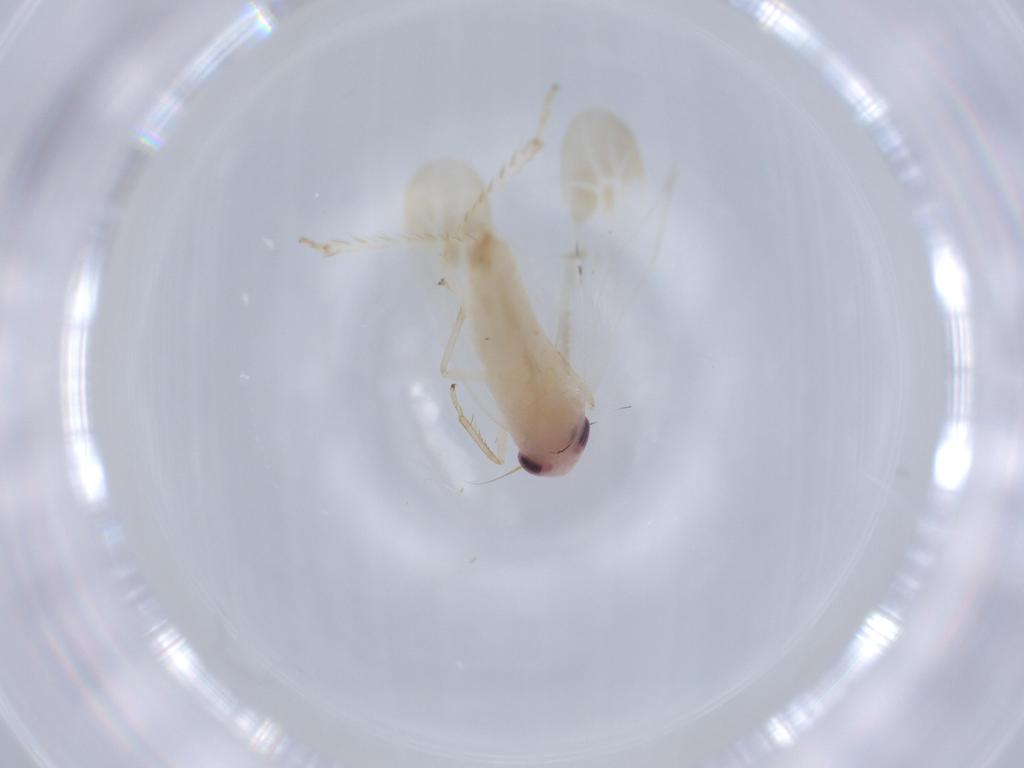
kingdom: Animalia
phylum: Arthropoda
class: Insecta
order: Hemiptera
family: Cicadellidae
